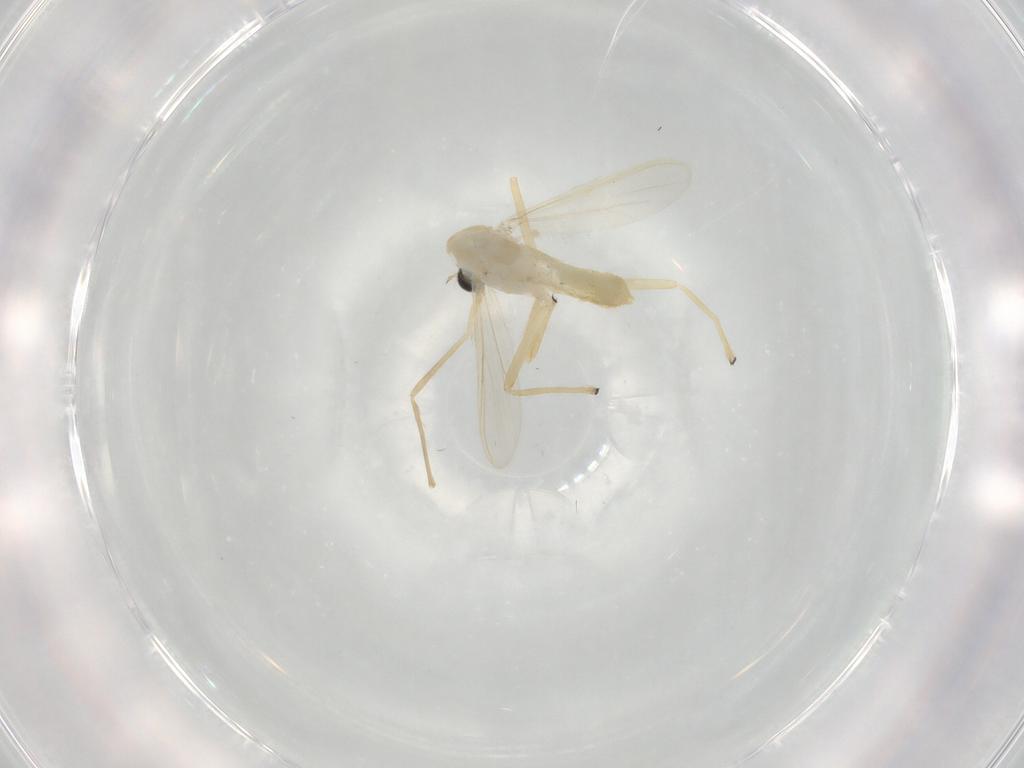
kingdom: Animalia
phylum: Arthropoda
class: Insecta
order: Diptera
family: Chironomidae
